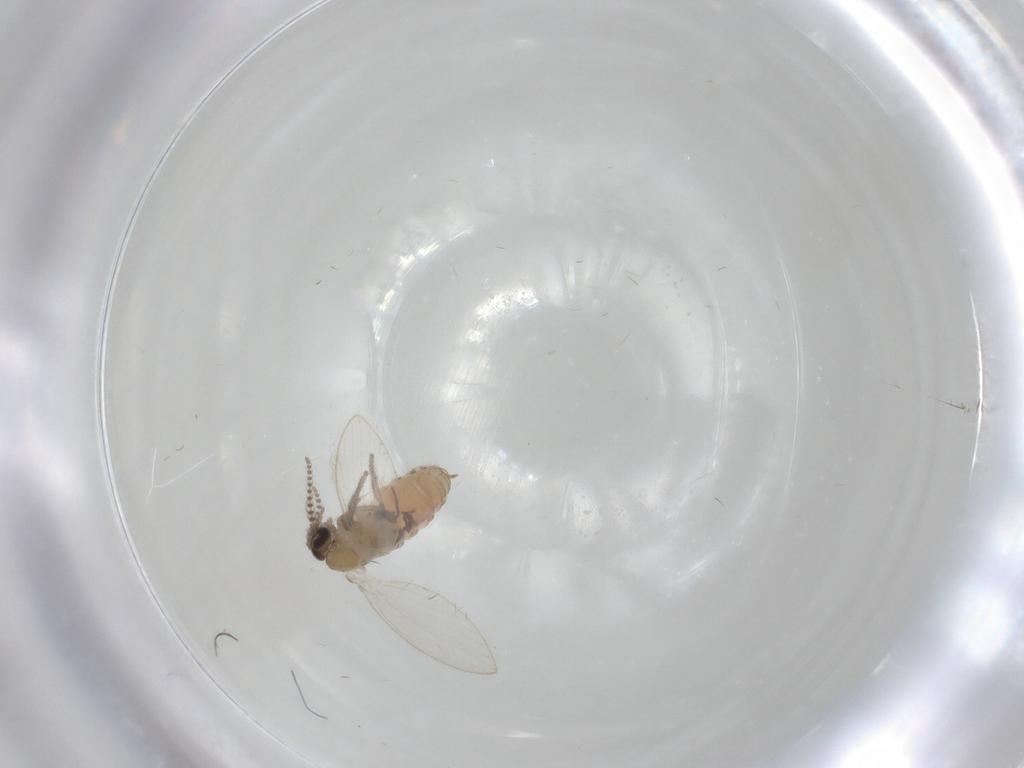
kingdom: Animalia
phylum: Arthropoda
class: Insecta
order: Diptera
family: Psychodidae
